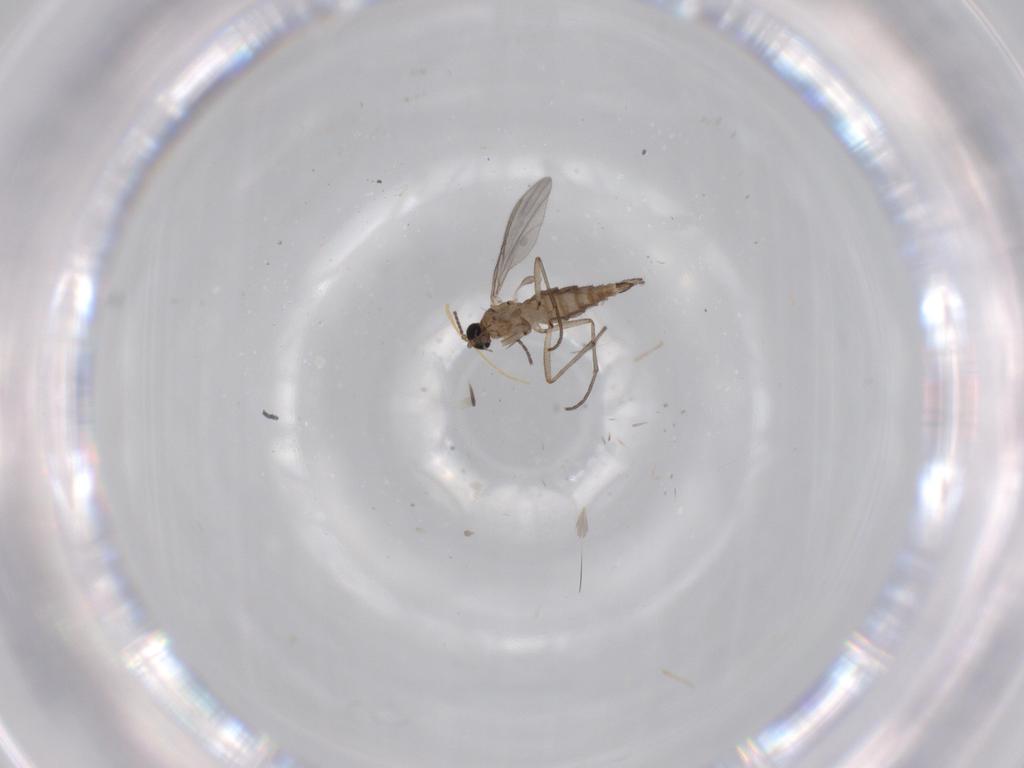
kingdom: Animalia
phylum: Arthropoda
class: Insecta
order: Diptera
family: Sciaridae
